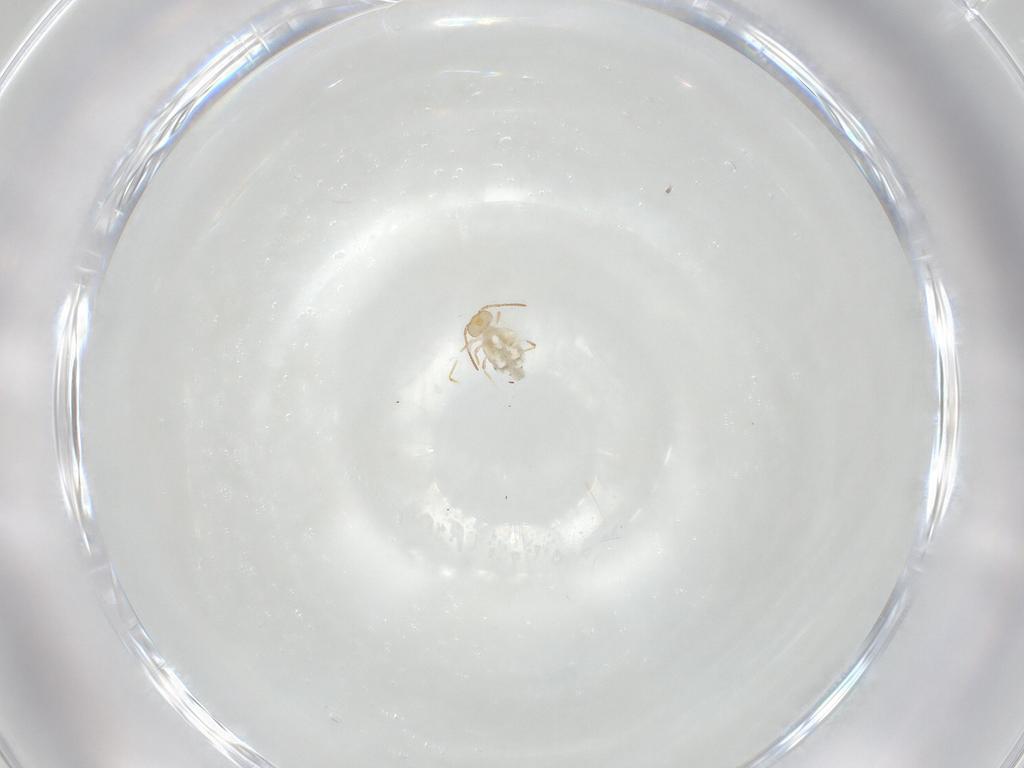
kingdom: Animalia
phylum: Arthropoda
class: Collembola
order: Symphypleona
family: Bourletiellidae
